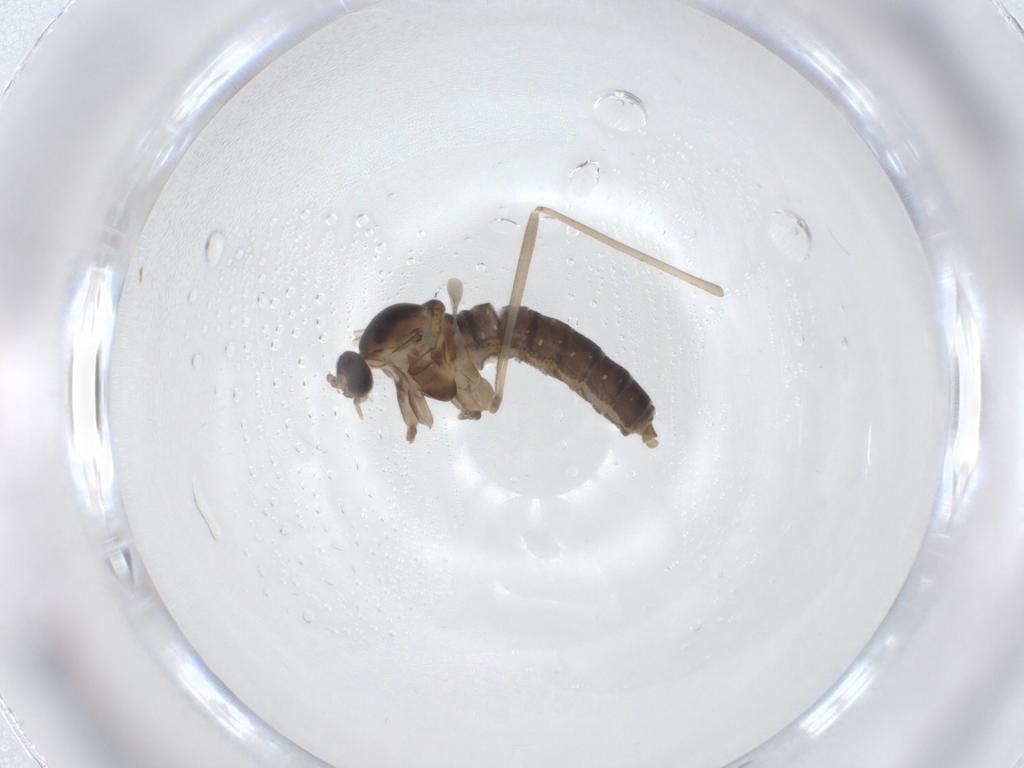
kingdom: Animalia
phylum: Arthropoda
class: Insecta
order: Diptera
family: Cecidomyiidae
